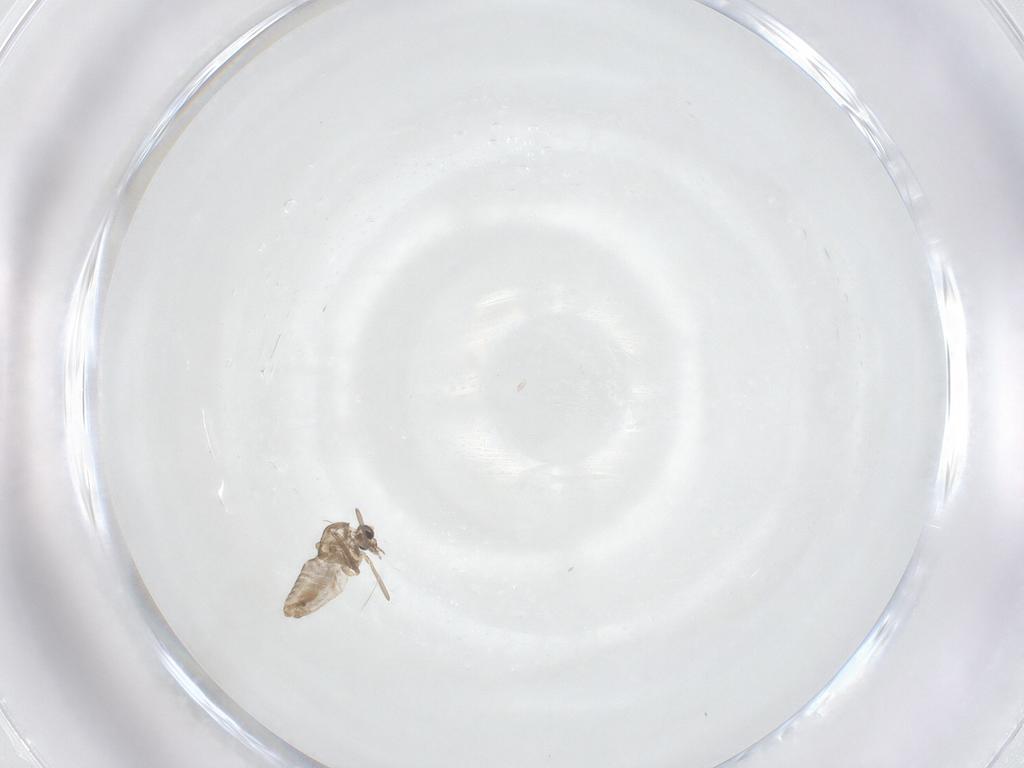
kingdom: Animalia
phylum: Arthropoda
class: Insecta
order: Diptera
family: Chironomidae
